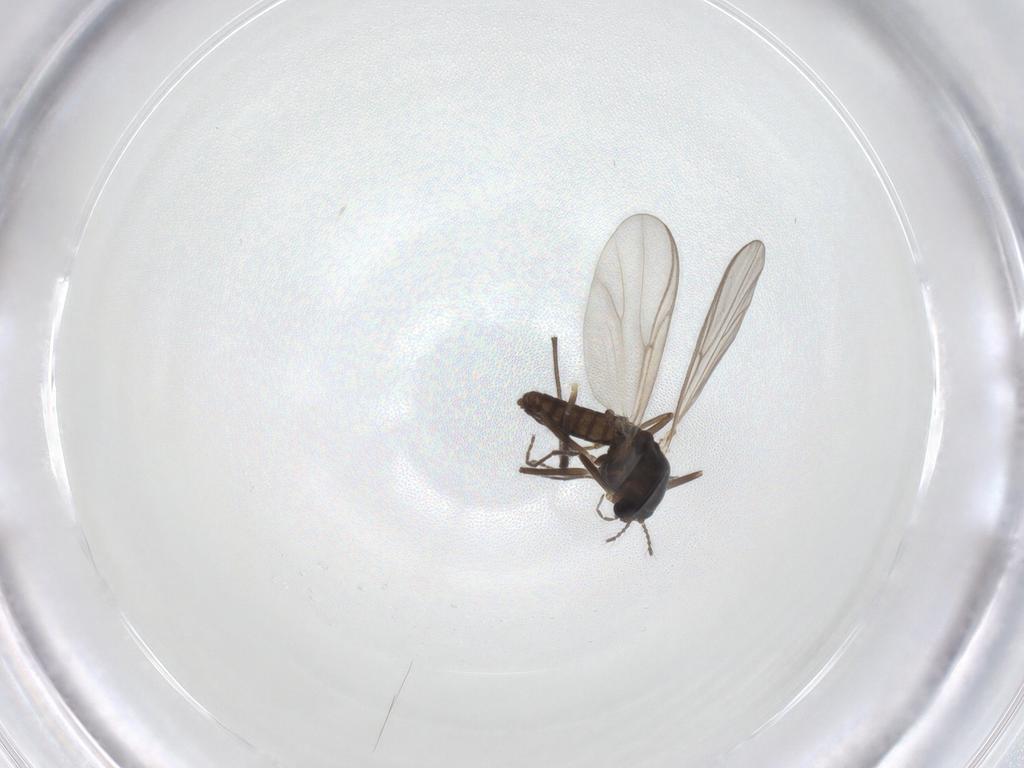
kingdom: Animalia
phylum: Arthropoda
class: Insecta
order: Diptera
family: Chironomidae
